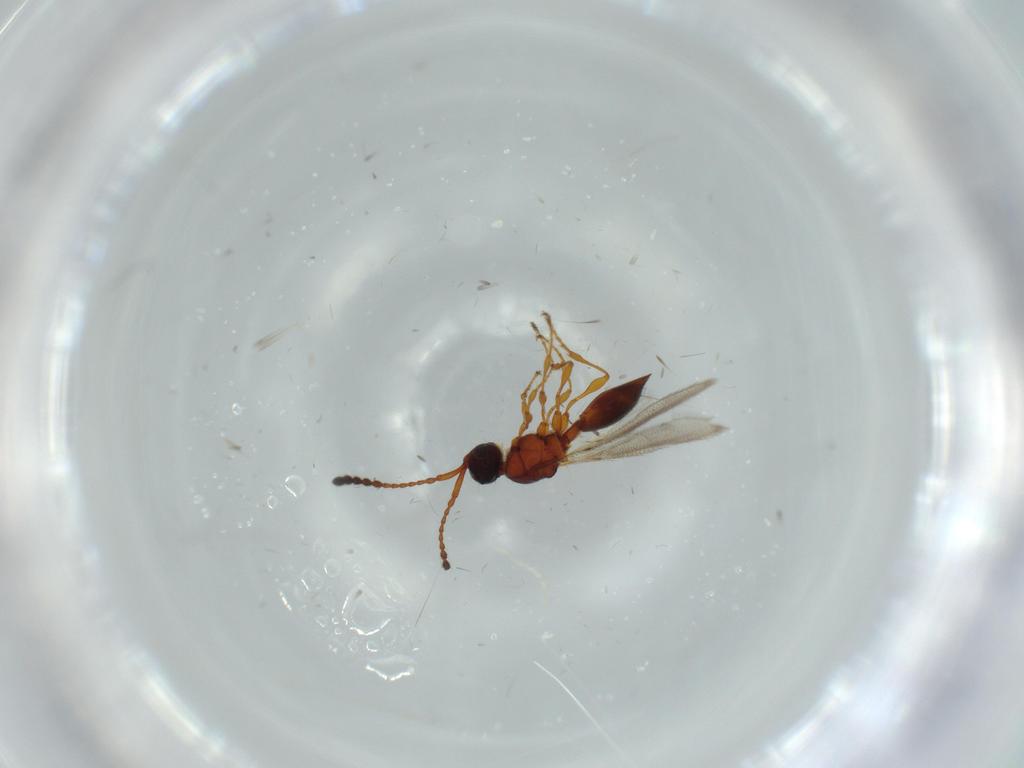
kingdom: Animalia
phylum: Arthropoda
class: Insecta
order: Hymenoptera
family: Diapriidae
